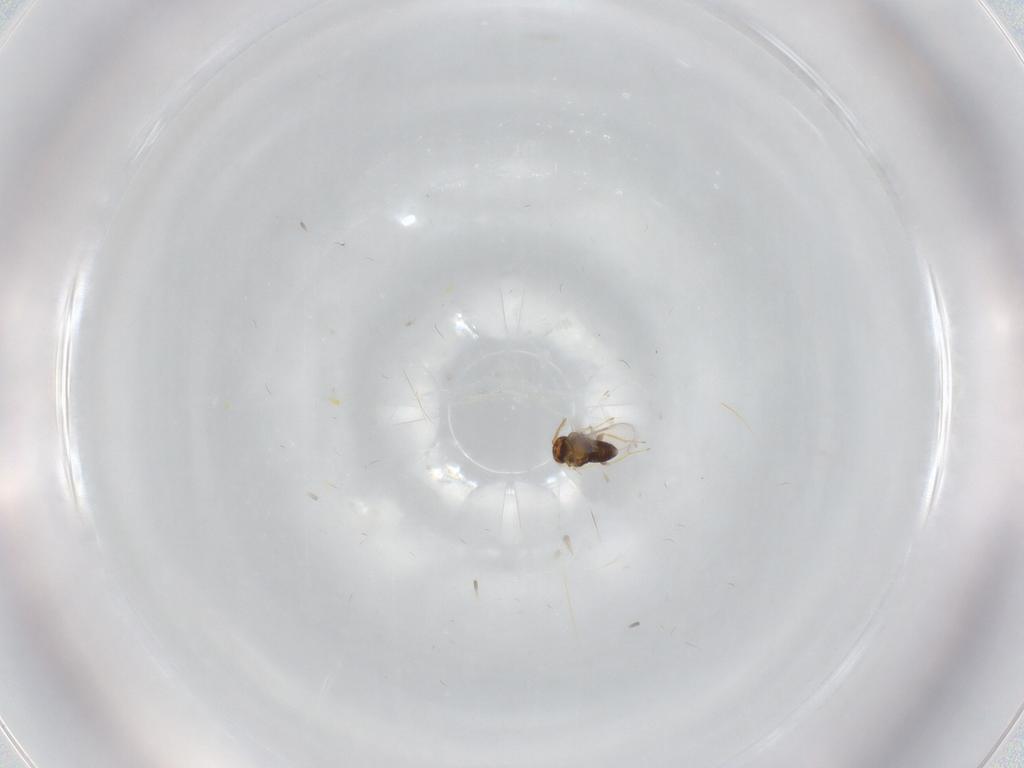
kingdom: Animalia
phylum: Arthropoda
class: Insecta
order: Hymenoptera
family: Aphelinidae
